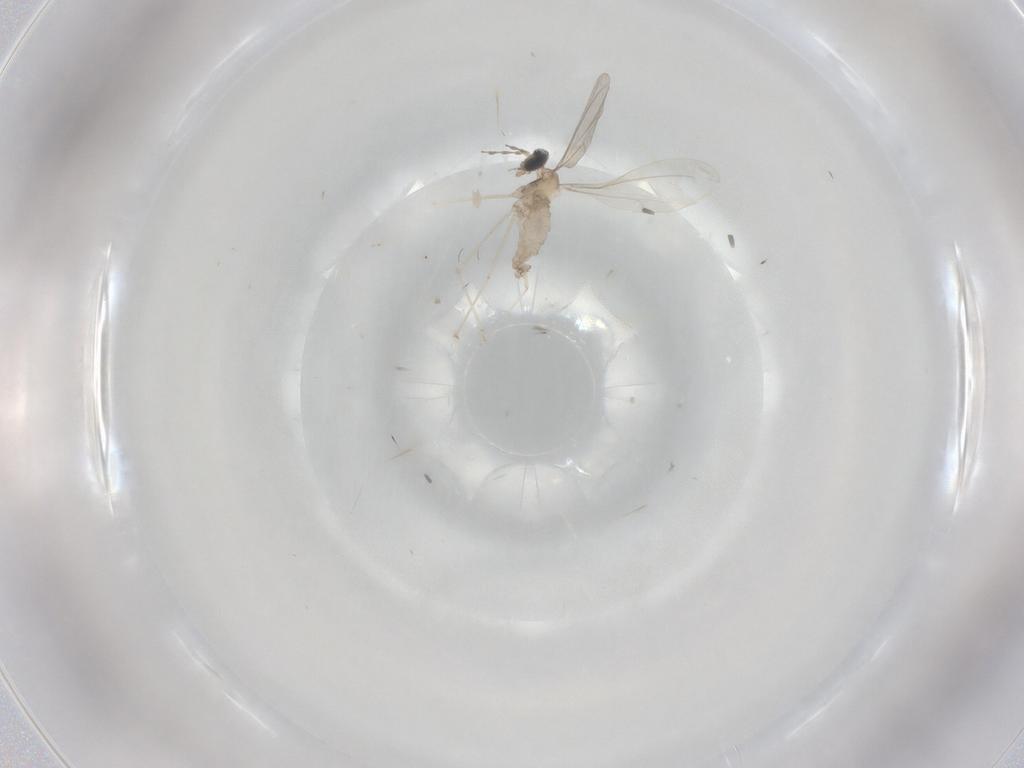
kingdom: Animalia
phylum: Arthropoda
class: Insecta
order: Diptera
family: Cecidomyiidae
